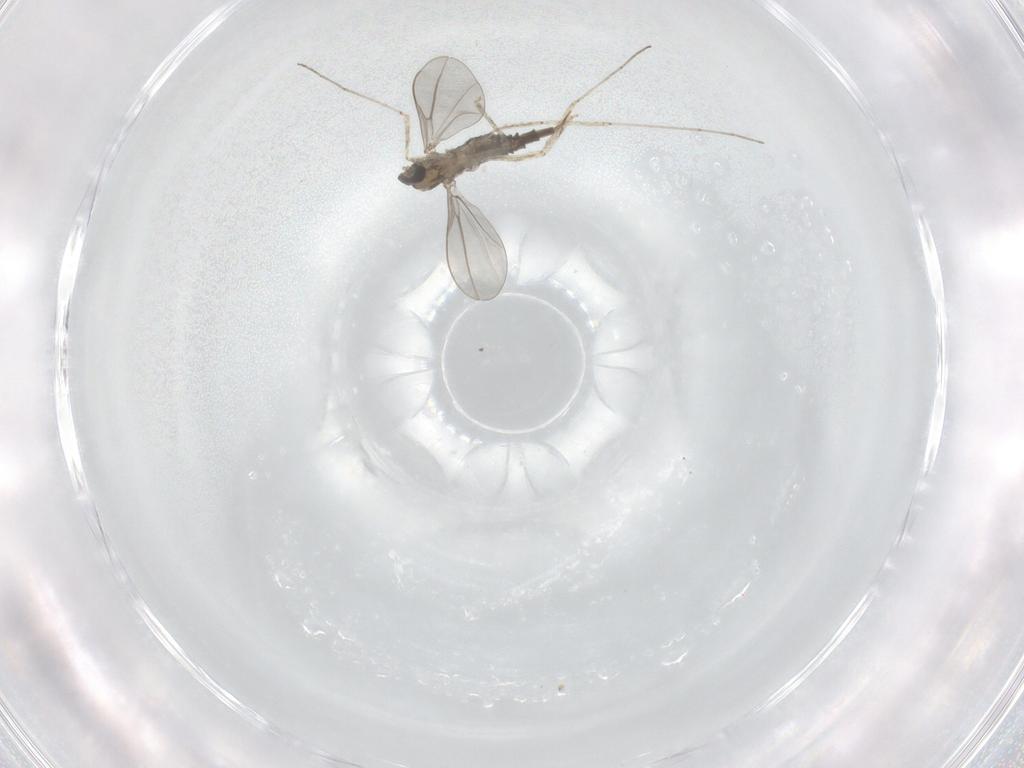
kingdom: Animalia
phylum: Arthropoda
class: Insecta
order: Diptera
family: Cecidomyiidae
